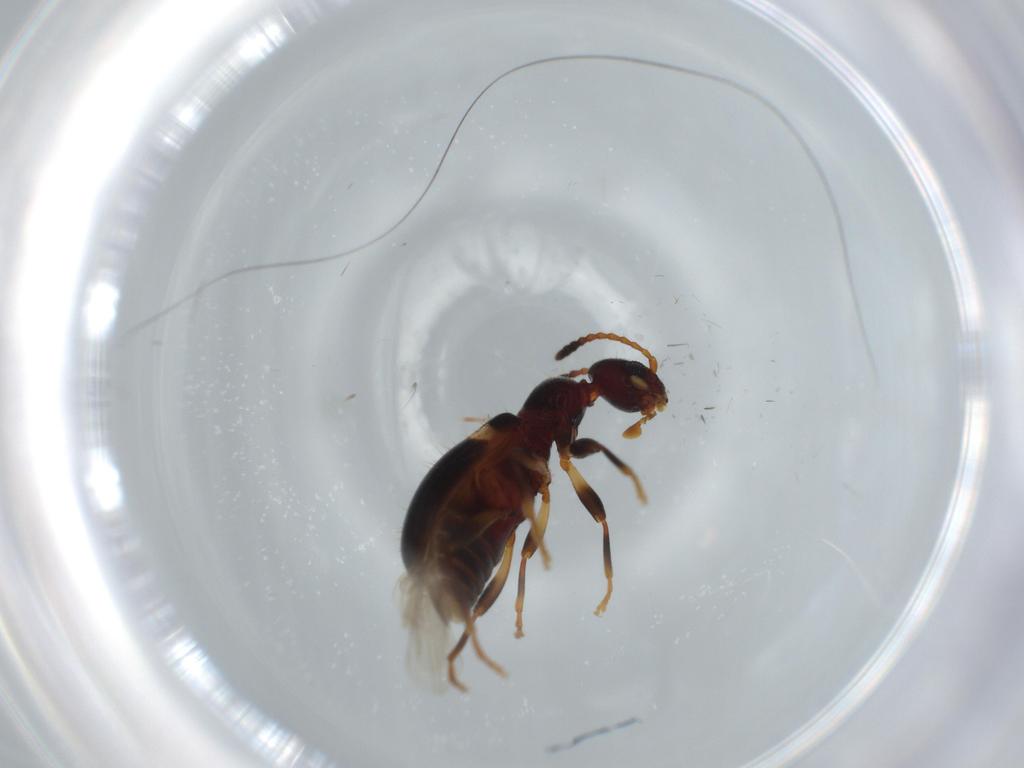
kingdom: Animalia
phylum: Arthropoda
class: Insecta
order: Coleoptera
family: Anthicidae
